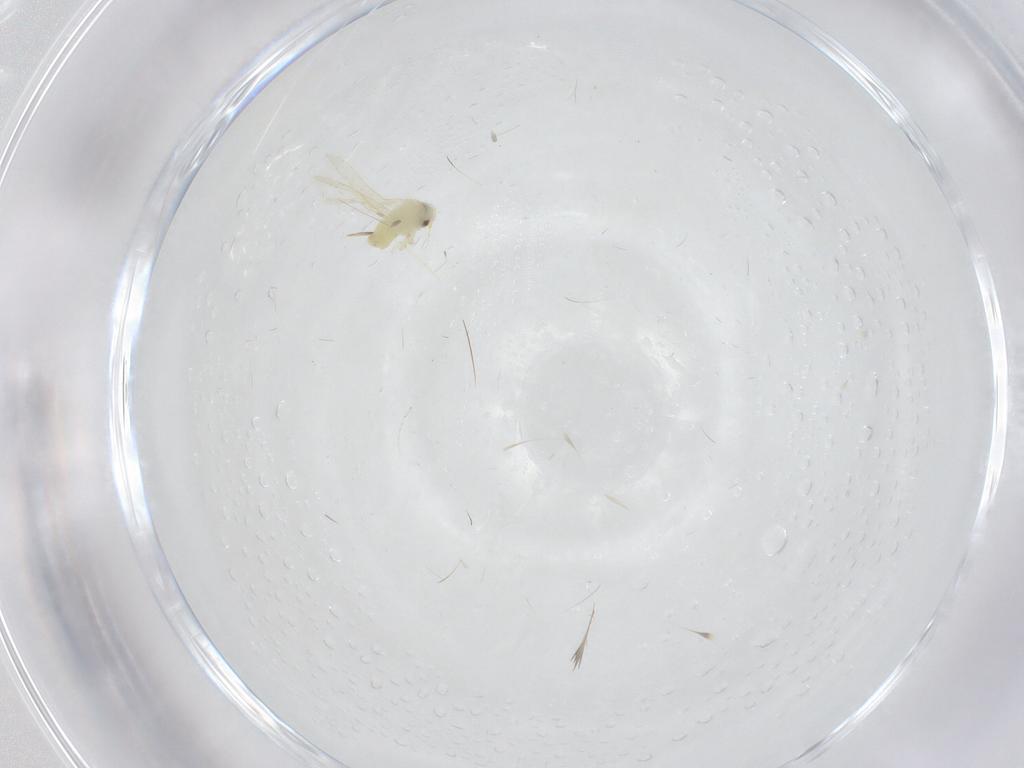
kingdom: Animalia
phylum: Arthropoda
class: Insecta
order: Hemiptera
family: Aleyrodidae
